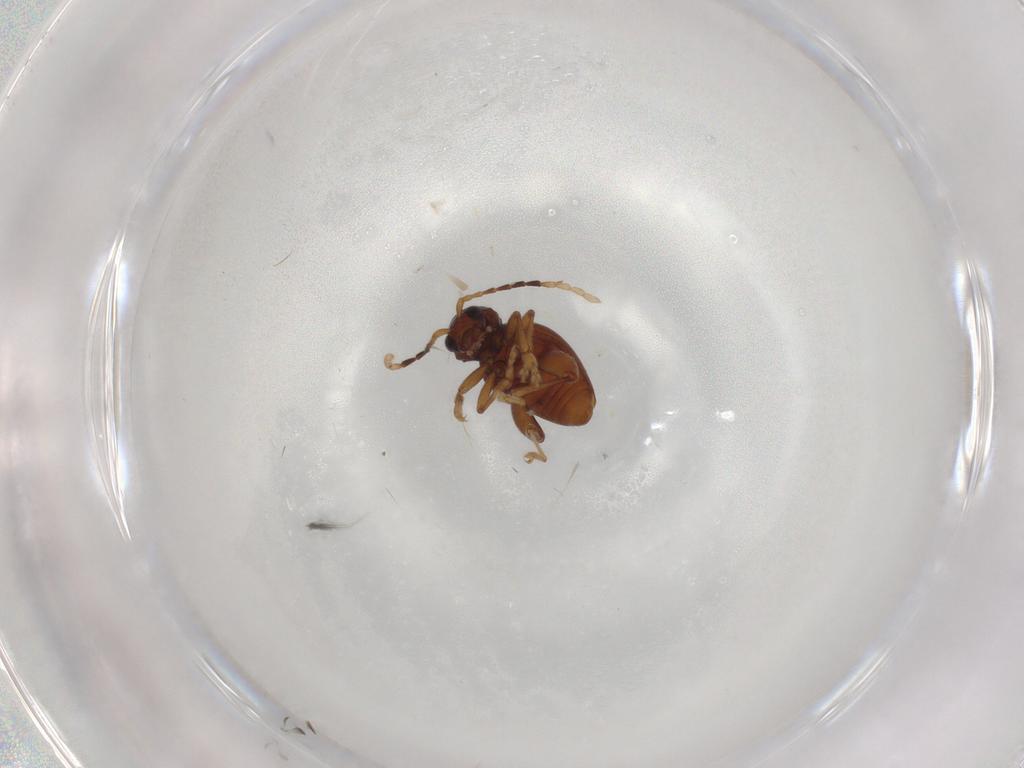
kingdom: Animalia
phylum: Arthropoda
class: Insecta
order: Coleoptera
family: Chrysomelidae
